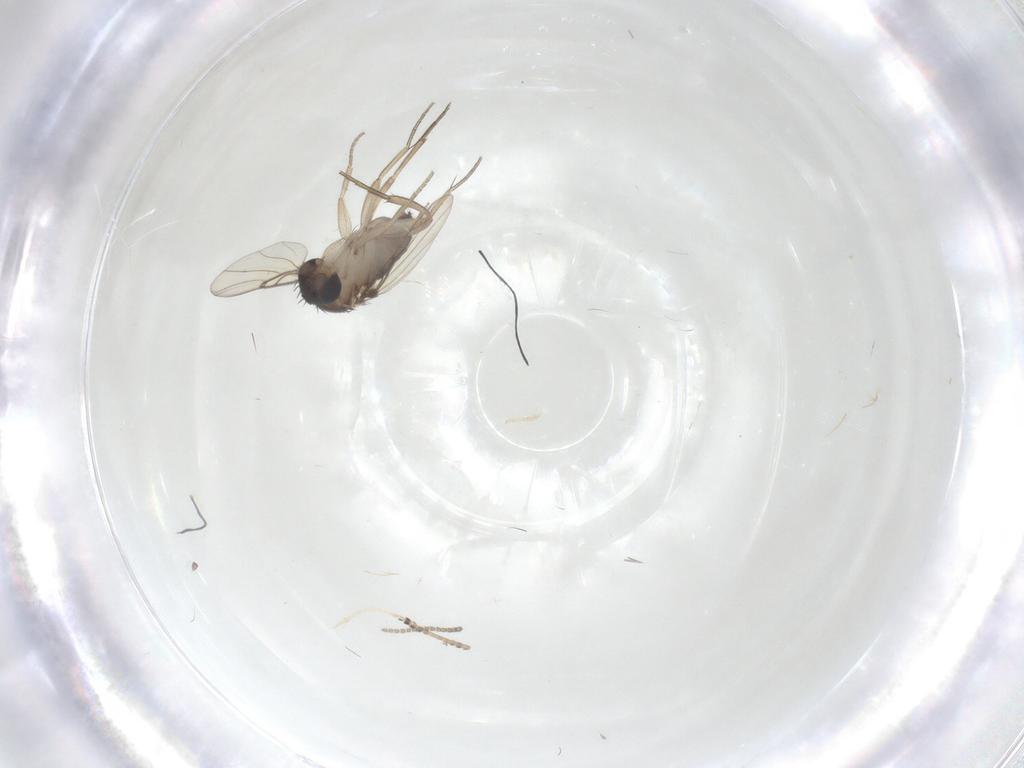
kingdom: Animalia
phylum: Arthropoda
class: Insecta
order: Diptera
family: Sciaridae
